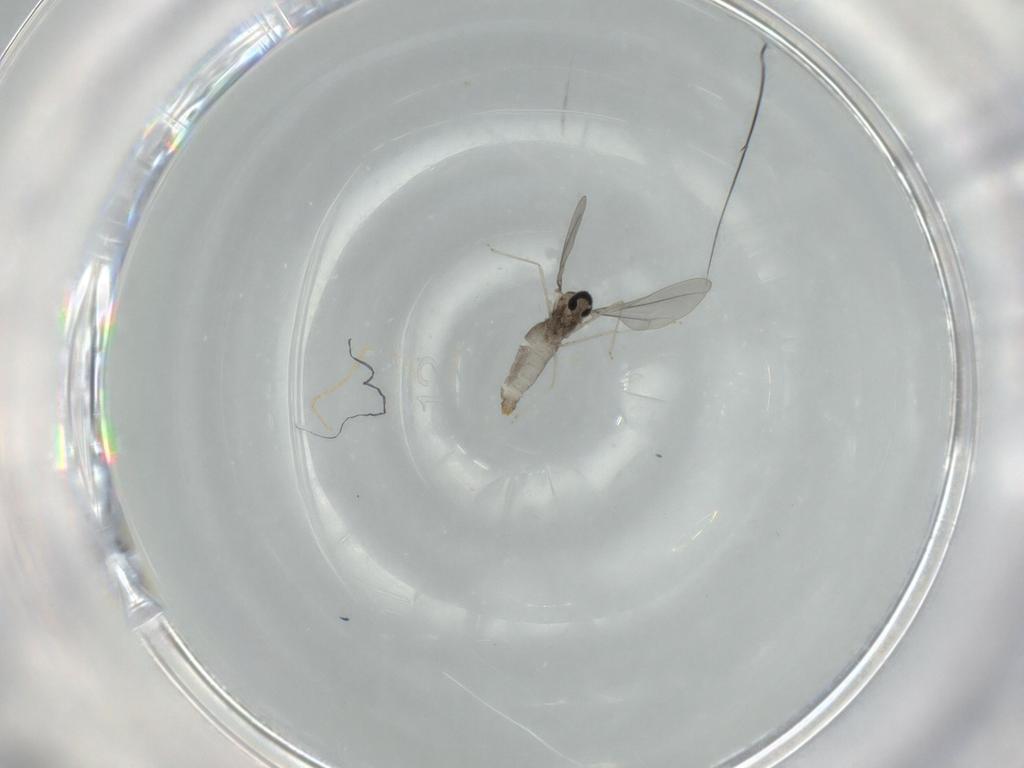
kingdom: Animalia
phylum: Arthropoda
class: Insecta
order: Diptera
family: Cecidomyiidae
